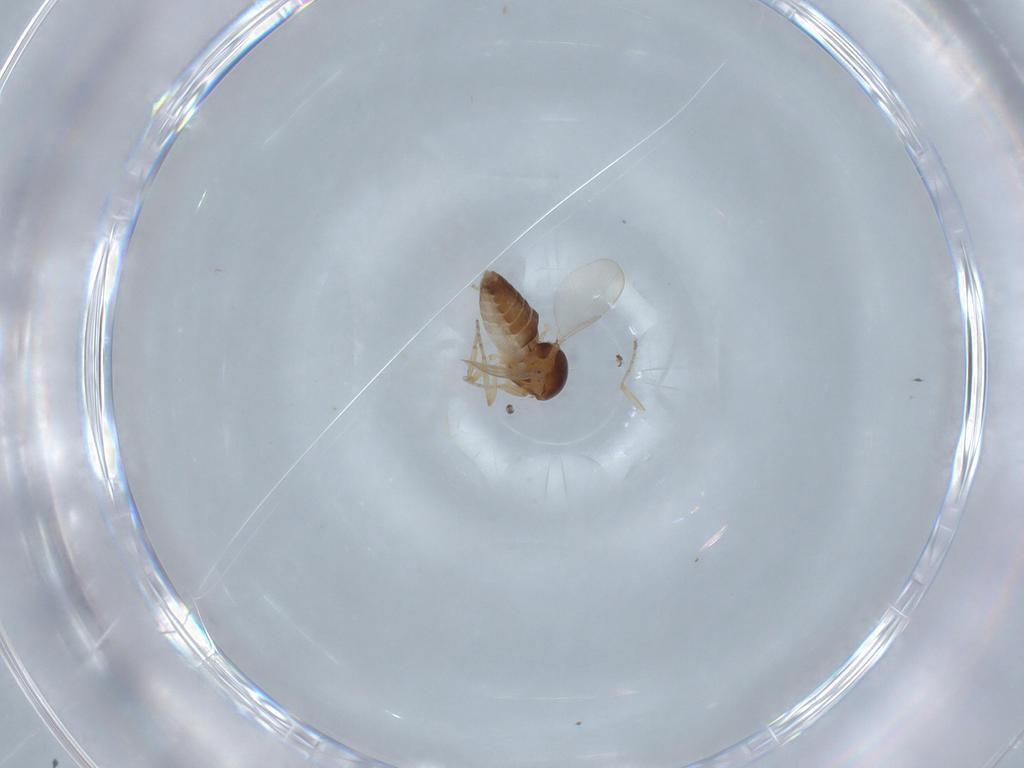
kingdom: Animalia
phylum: Arthropoda
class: Insecta
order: Diptera
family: Ceratopogonidae
